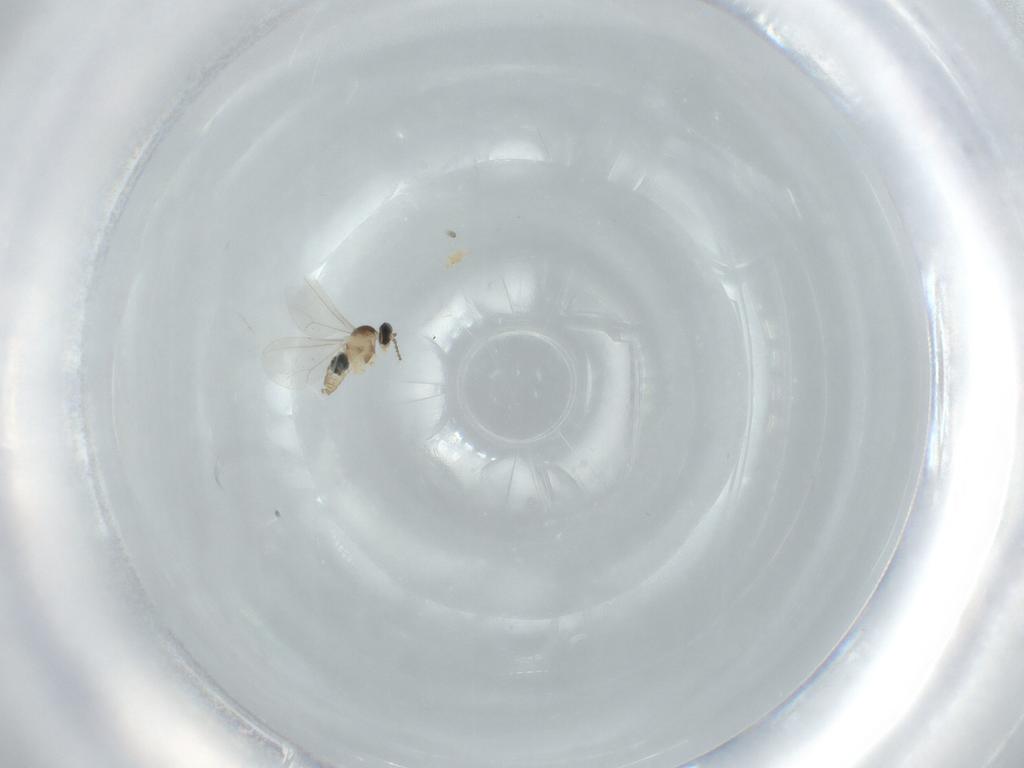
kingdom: Animalia
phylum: Arthropoda
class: Insecta
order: Diptera
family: Cecidomyiidae
